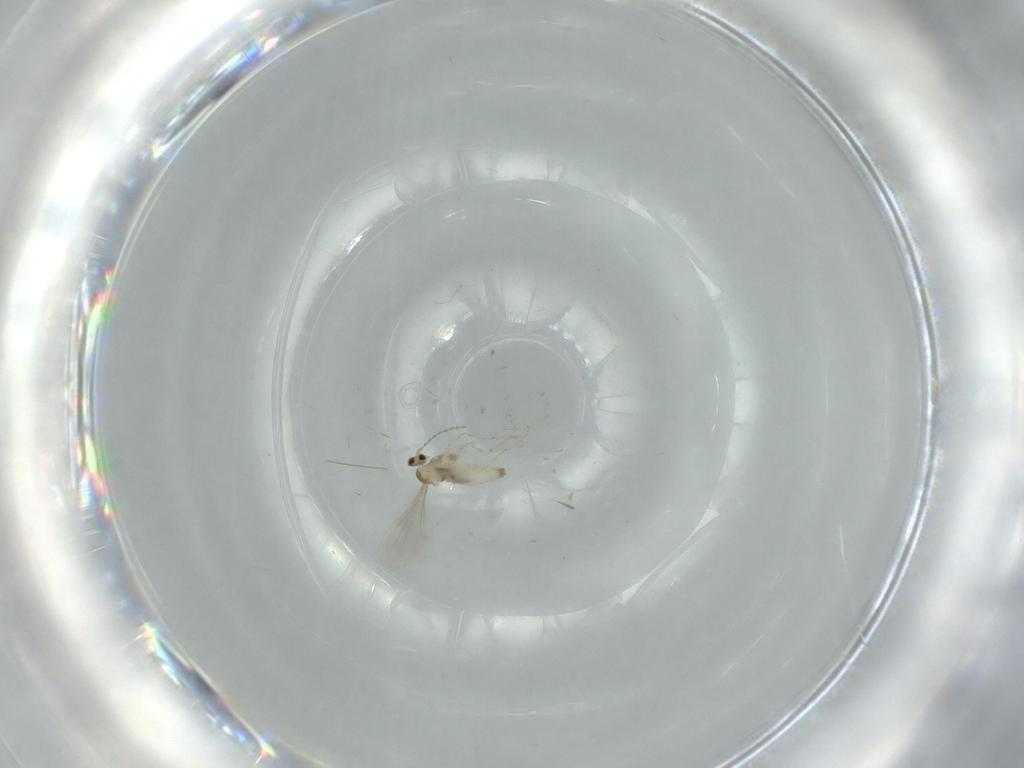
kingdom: Animalia
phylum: Arthropoda
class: Insecta
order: Diptera
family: Cecidomyiidae
